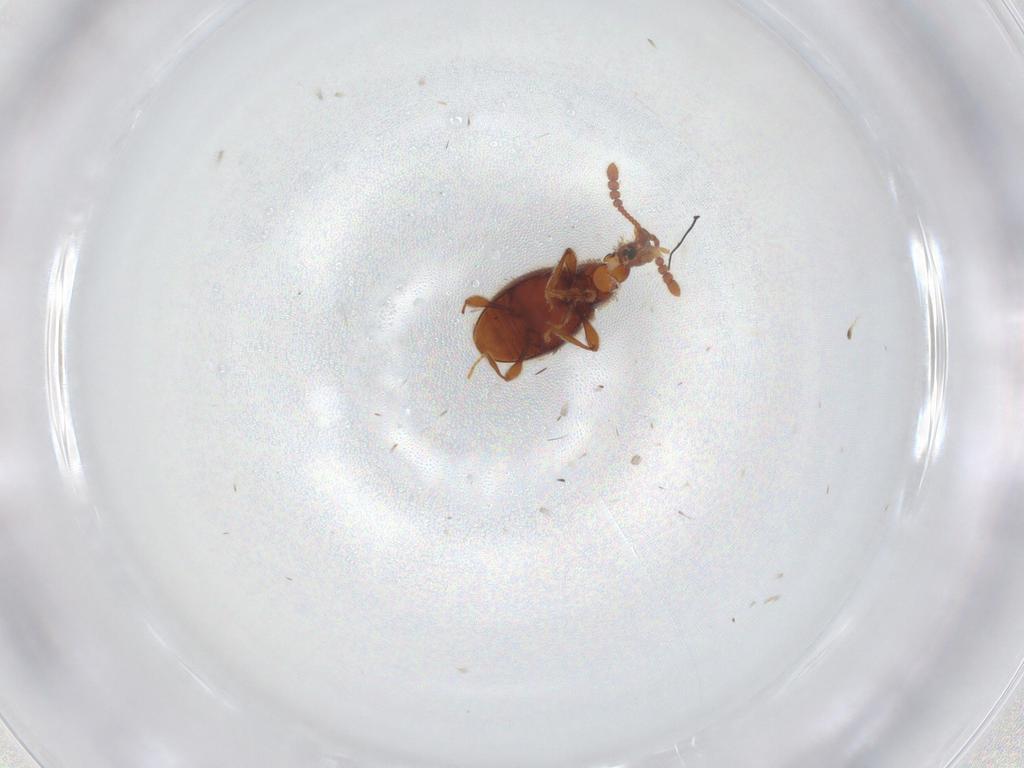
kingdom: Animalia
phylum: Arthropoda
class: Insecta
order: Coleoptera
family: Staphylinidae
